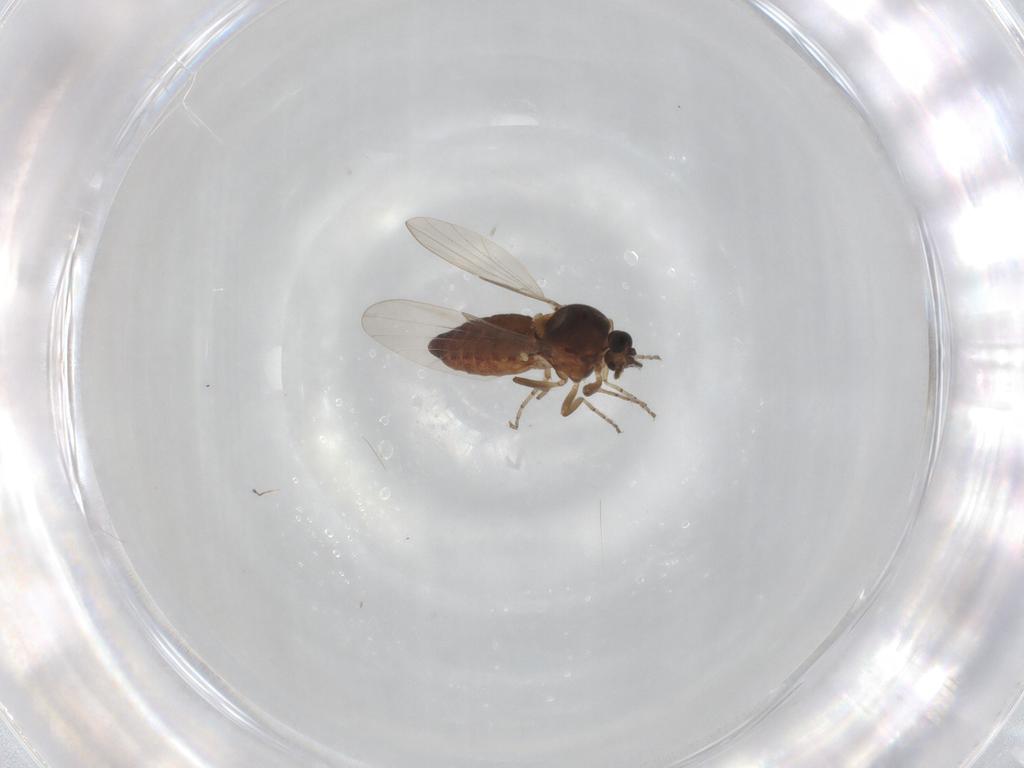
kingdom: Animalia
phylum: Arthropoda
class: Insecta
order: Diptera
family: Ceratopogonidae
